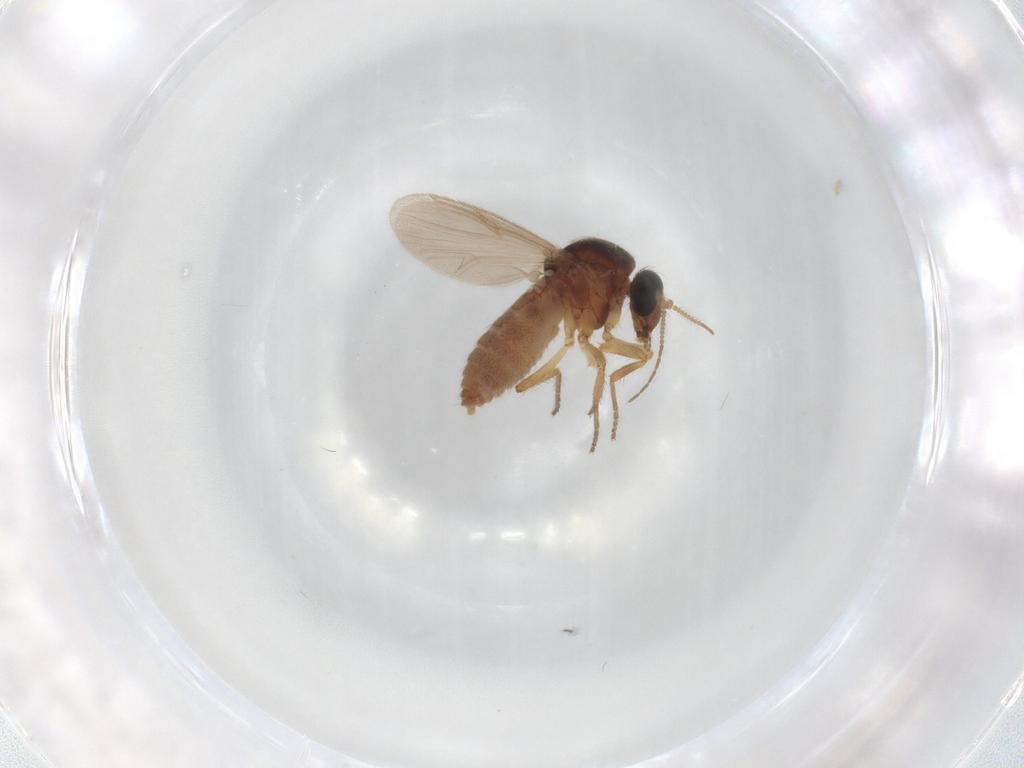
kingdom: Animalia
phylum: Arthropoda
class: Insecta
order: Diptera
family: Ceratopogonidae
